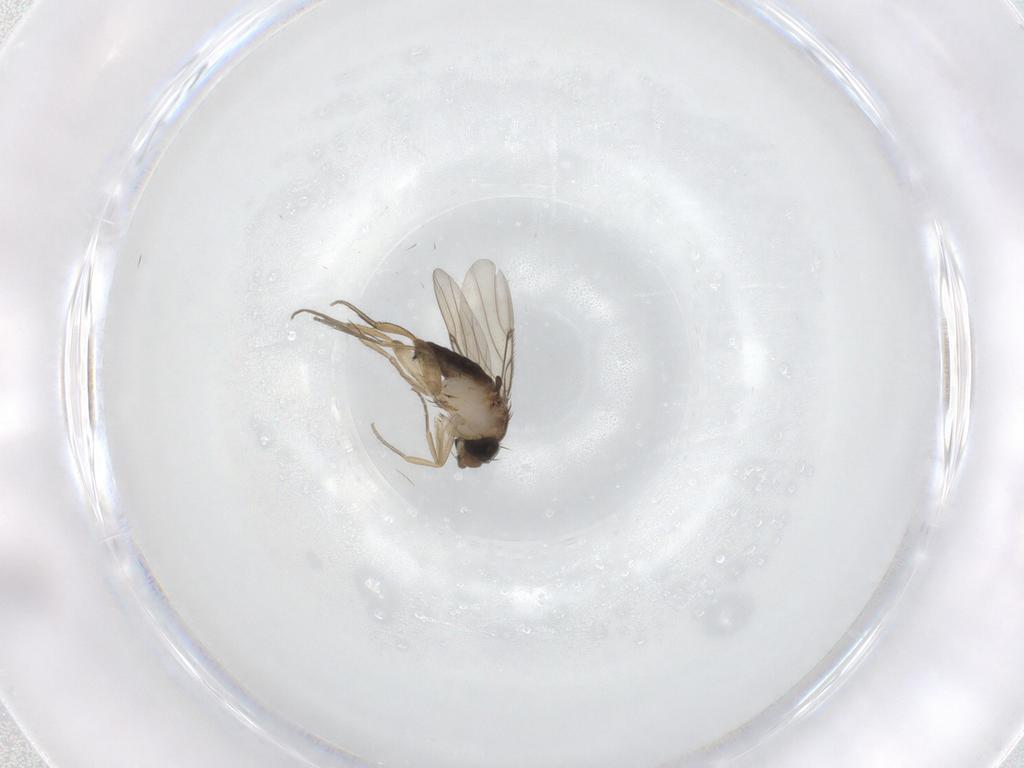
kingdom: Animalia
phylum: Arthropoda
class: Insecta
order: Diptera
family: Phoridae
